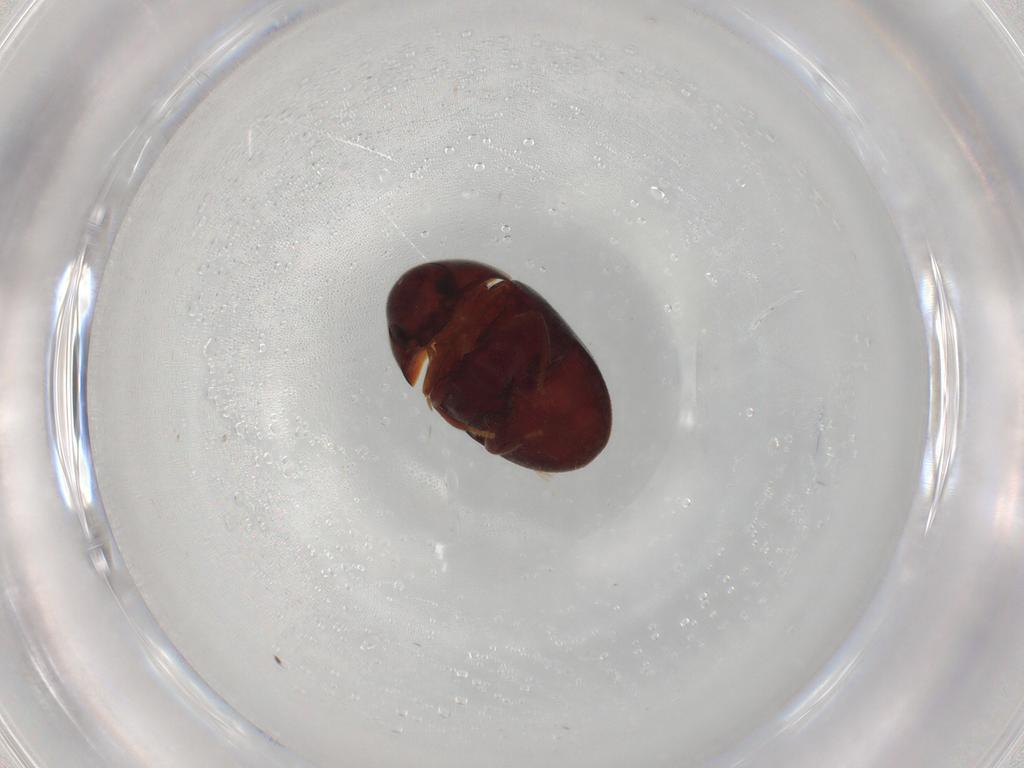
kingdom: Animalia
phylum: Arthropoda
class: Insecta
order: Coleoptera
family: Ptinidae
